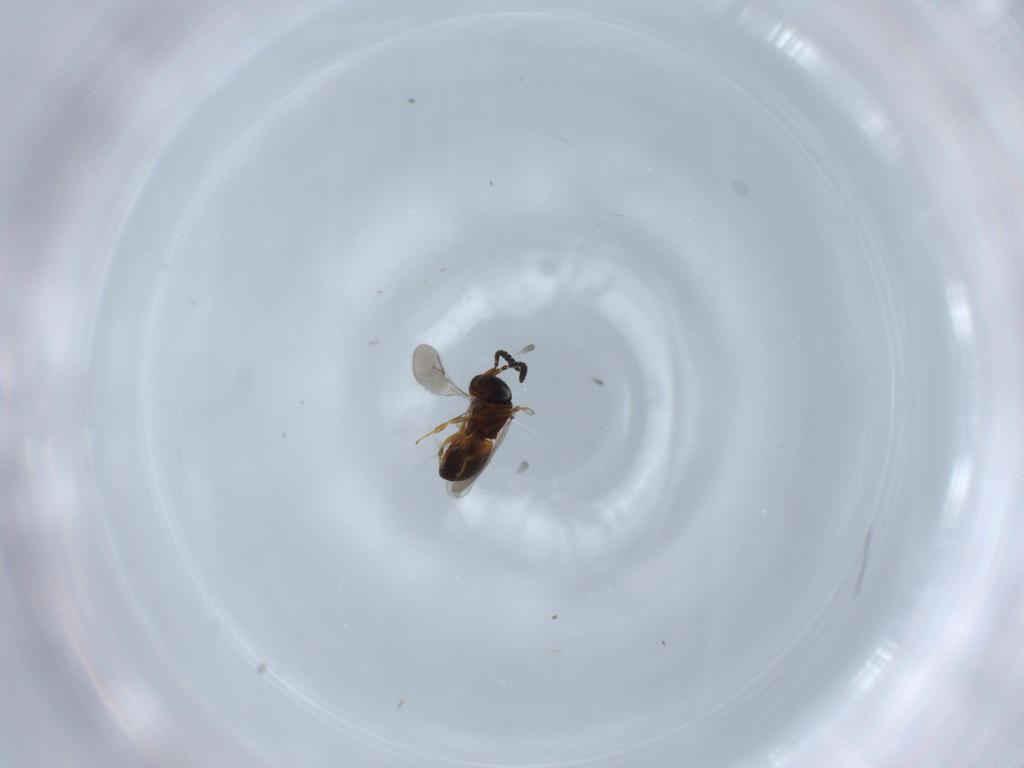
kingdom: Animalia
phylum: Arthropoda
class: Insecta
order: Hymenoptera
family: Scelionidae
